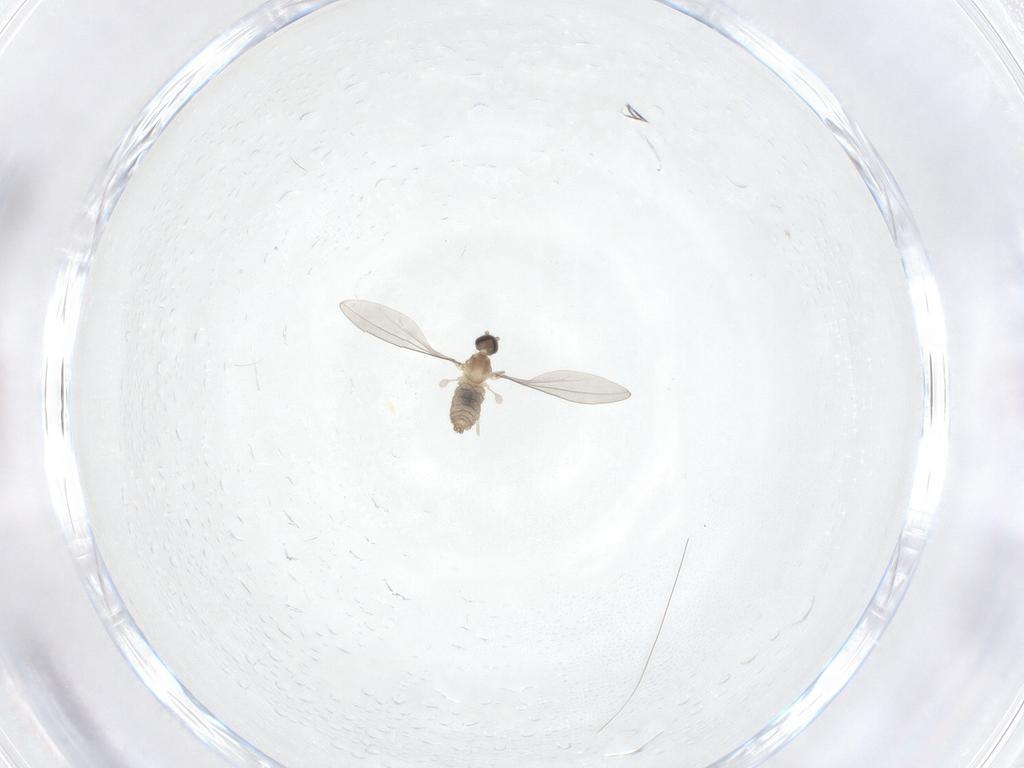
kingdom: Animalia
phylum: Arthropoda
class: Insecta
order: Diptera
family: Cecidomyiidae
